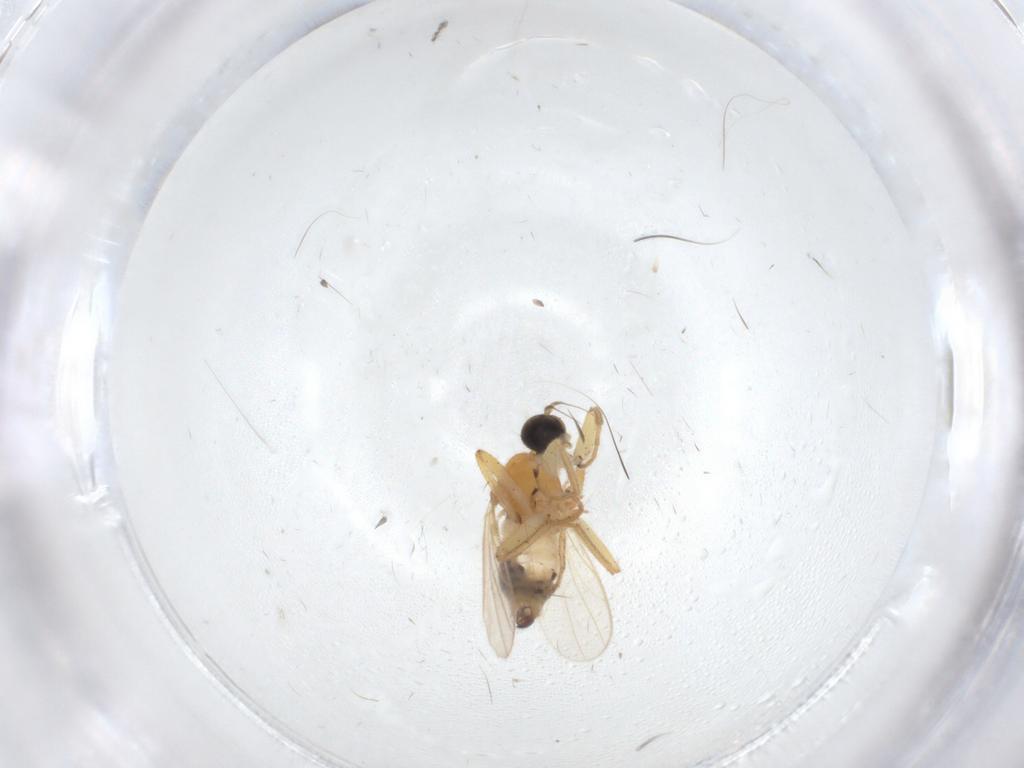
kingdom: Animalia
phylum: Arthropoda
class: Insecta
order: Diptera
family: Hybotidae
